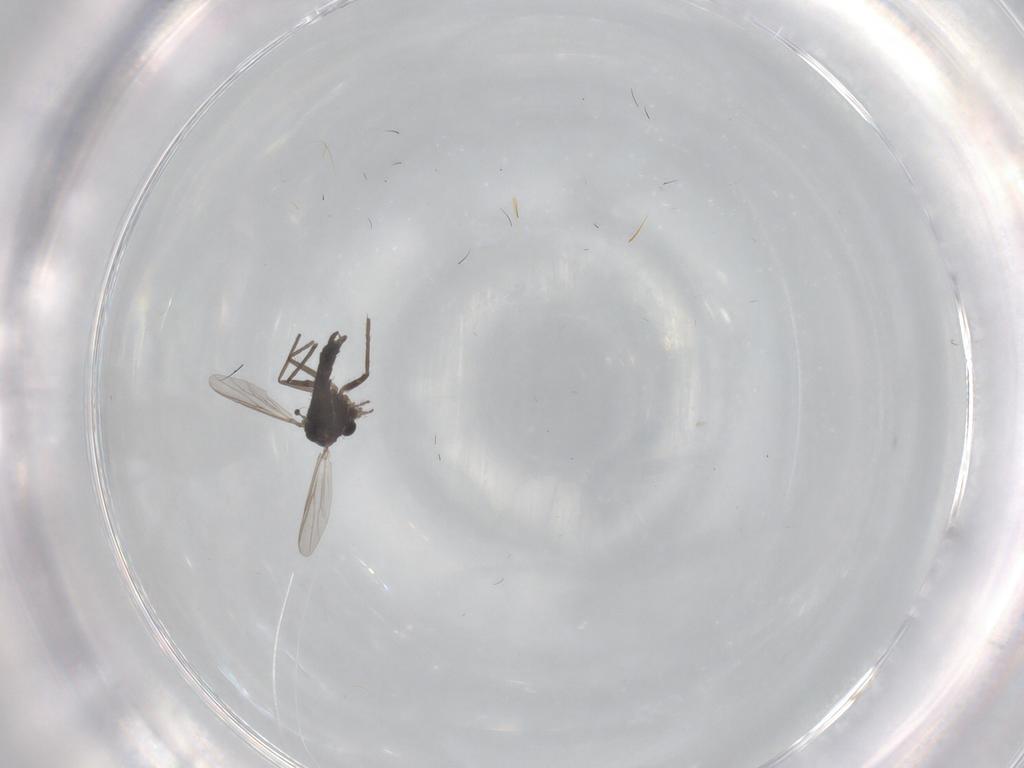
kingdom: Animalia
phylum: Arthropoda
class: Insecta
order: Diptera
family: Chironomidae
